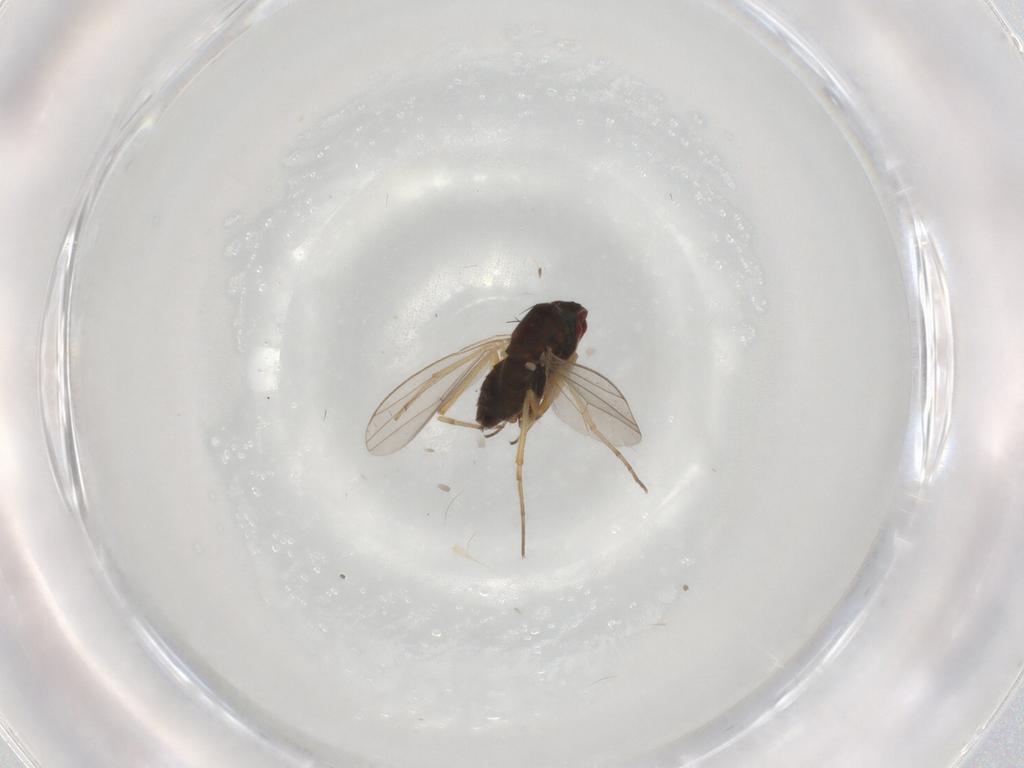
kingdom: Animalia
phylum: Arthropoda
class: Insecta
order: Diptera
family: Dolichopodidae
